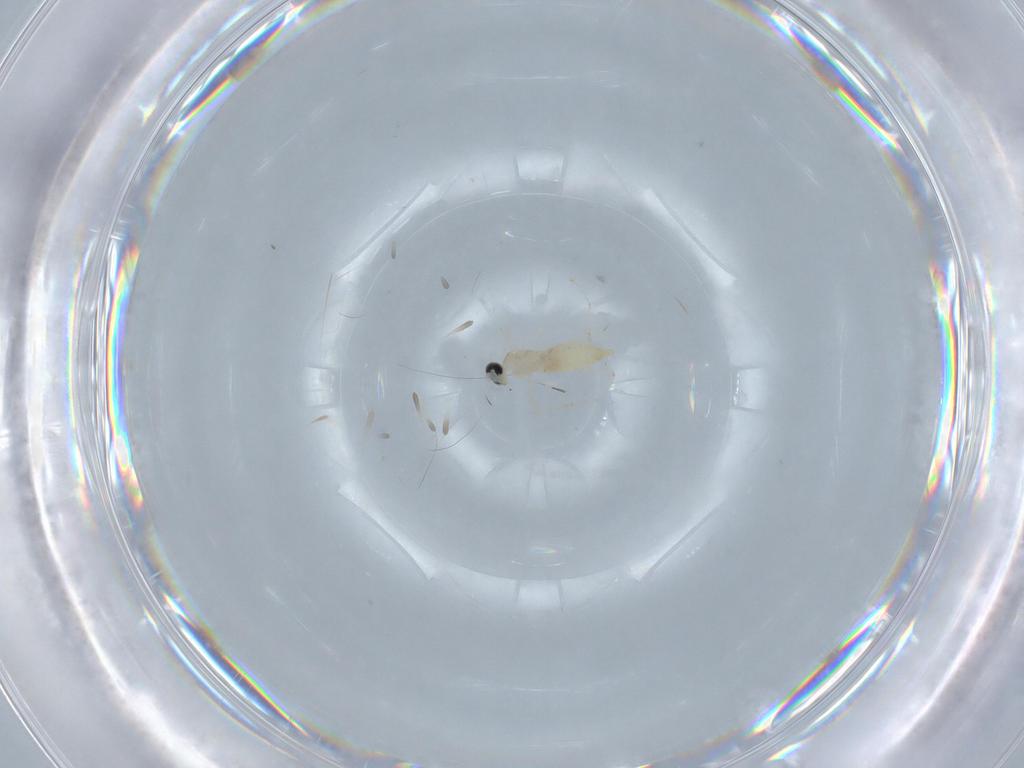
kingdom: Animalia
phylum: Arthropoda
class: Insecta
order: Diptera
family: Cecidomyiidae
